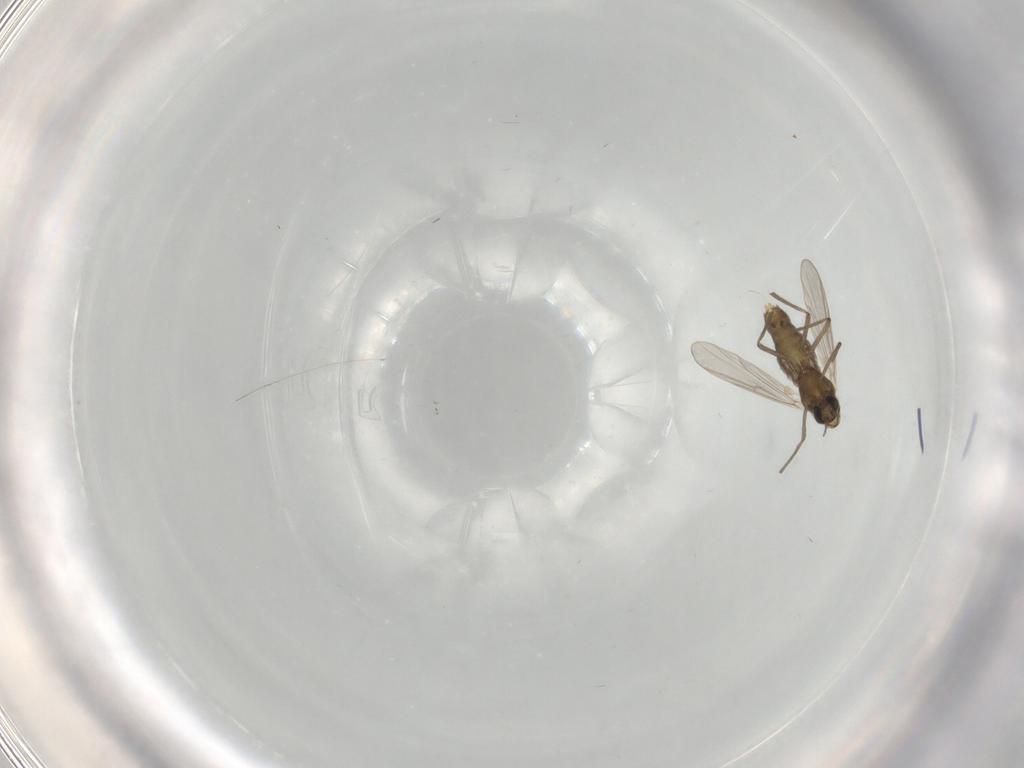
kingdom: Animalia
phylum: Arthropoda
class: Insecta
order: Diptera
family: Chironomidae
